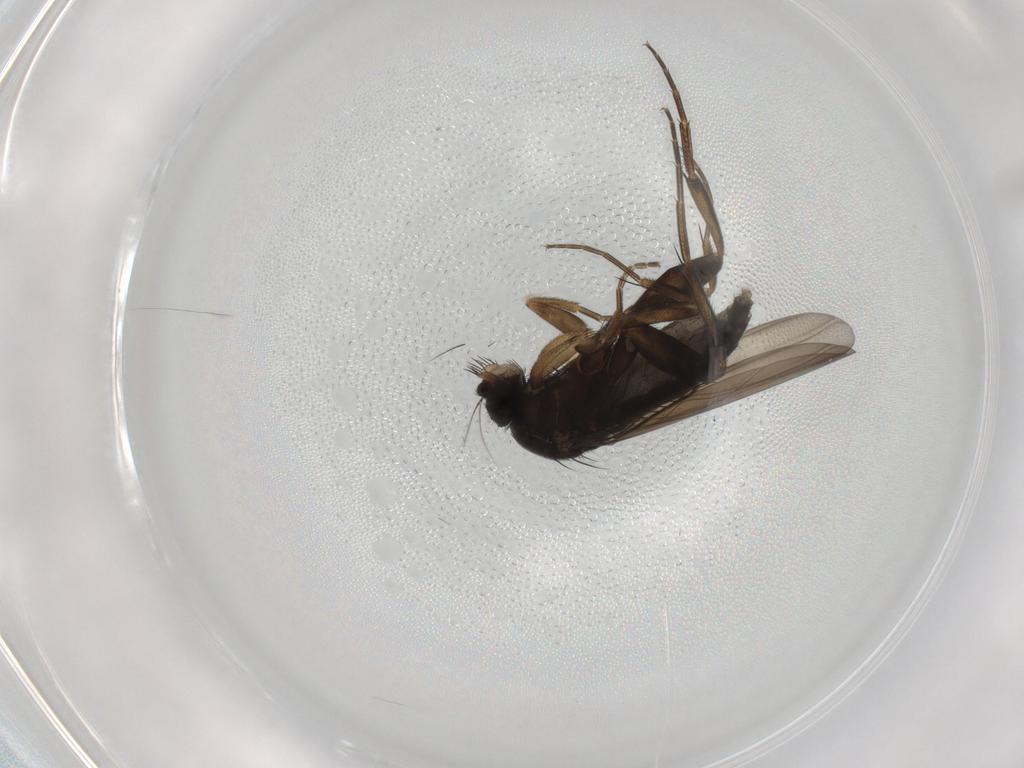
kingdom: Animalia
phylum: Arthropoda
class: Insecta
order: Diptera
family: Phoridae
